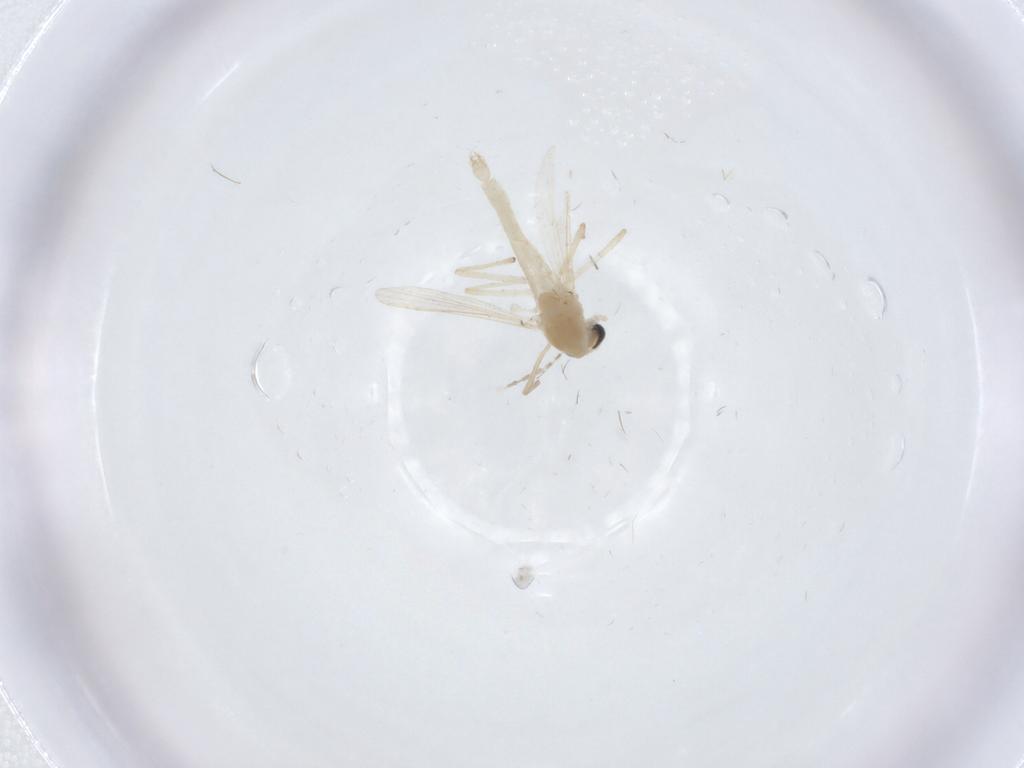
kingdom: Animalia
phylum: Arthropoda
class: Insecta
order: Diptera
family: Chironomidae
